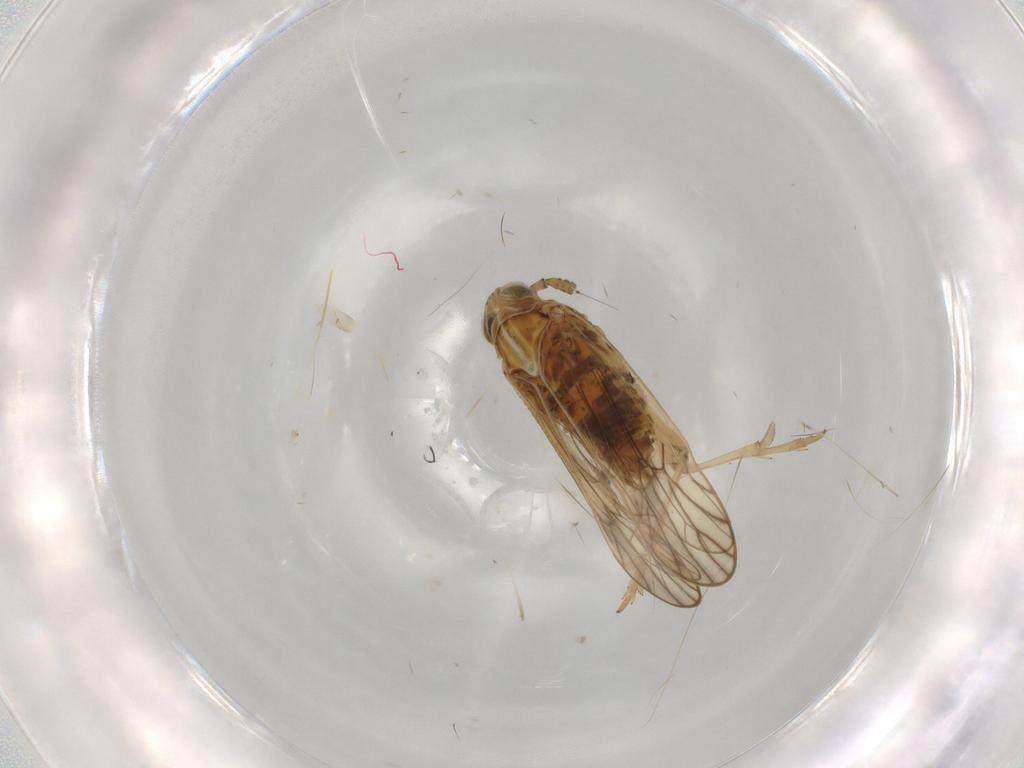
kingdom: Animalia
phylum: Arthropoda
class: Insecta
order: Hemiptera
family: Delphacidae
